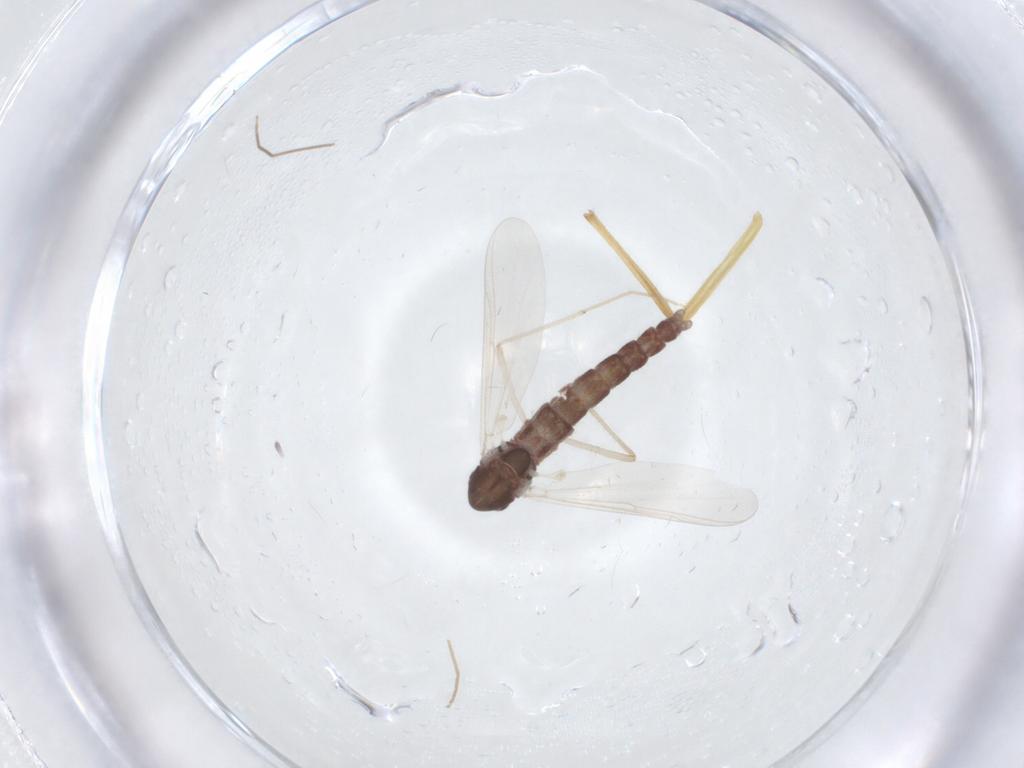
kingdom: Animalia
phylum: Arthropoda
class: Insecta
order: Diptera
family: Chironomidae
